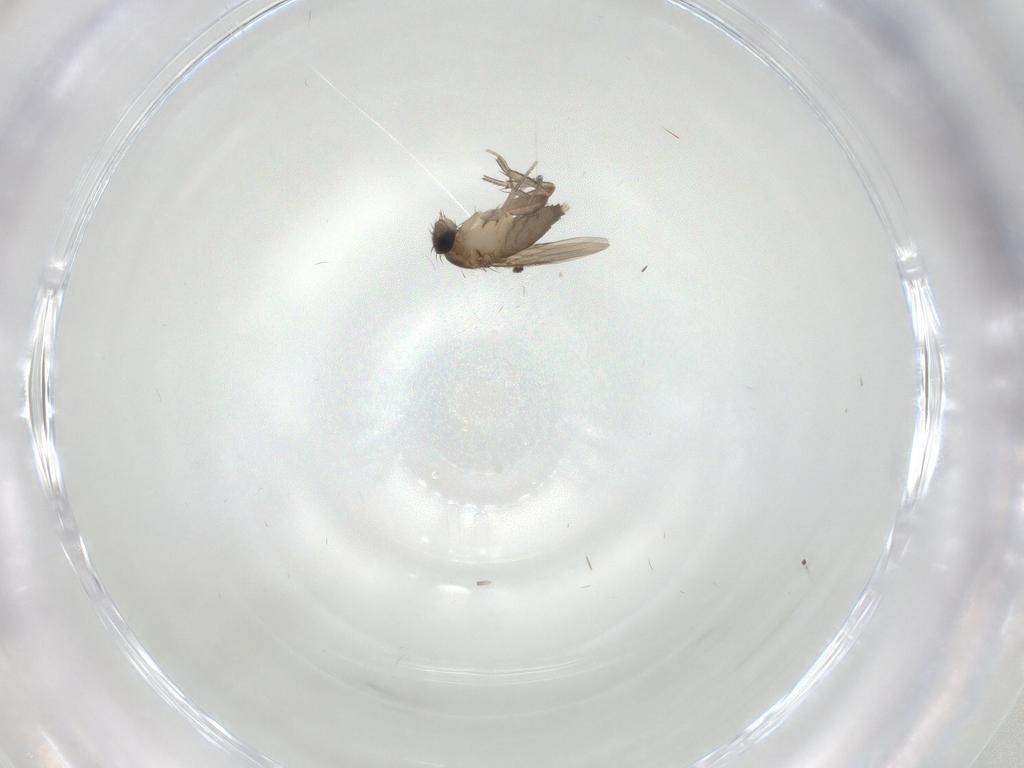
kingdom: Animalia
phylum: Arthropoda
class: Insecta
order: Diptera
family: Phoridae
